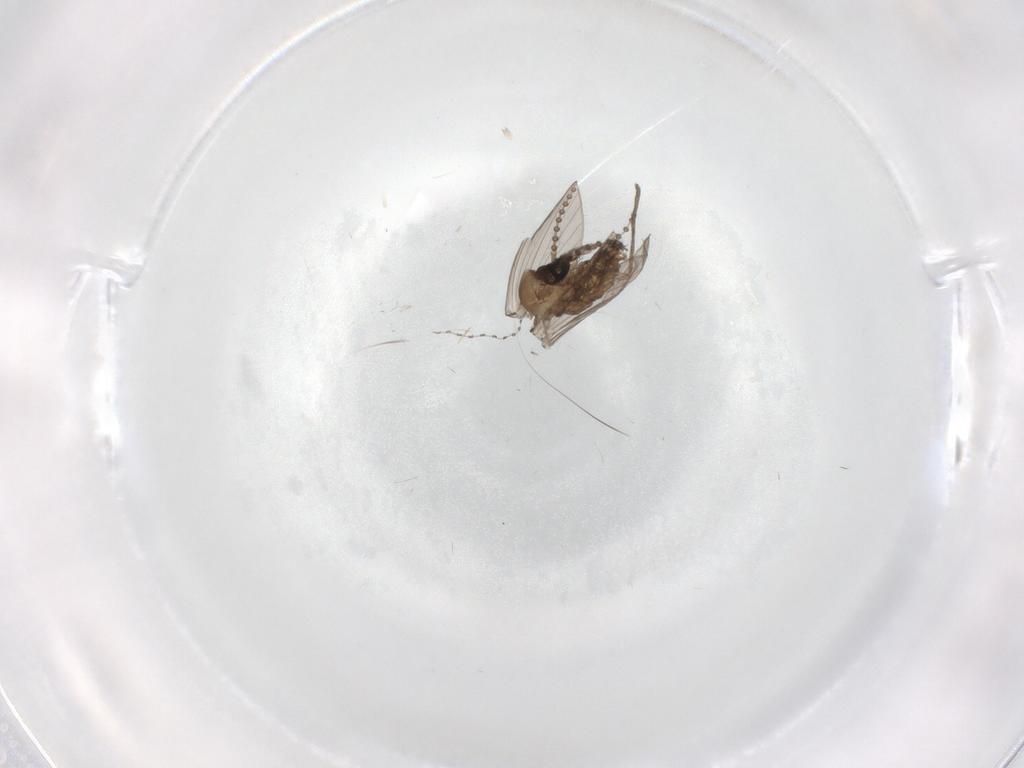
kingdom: Animalia
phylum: Arthropoda
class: Insecta
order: Diptera
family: Psychodidae
